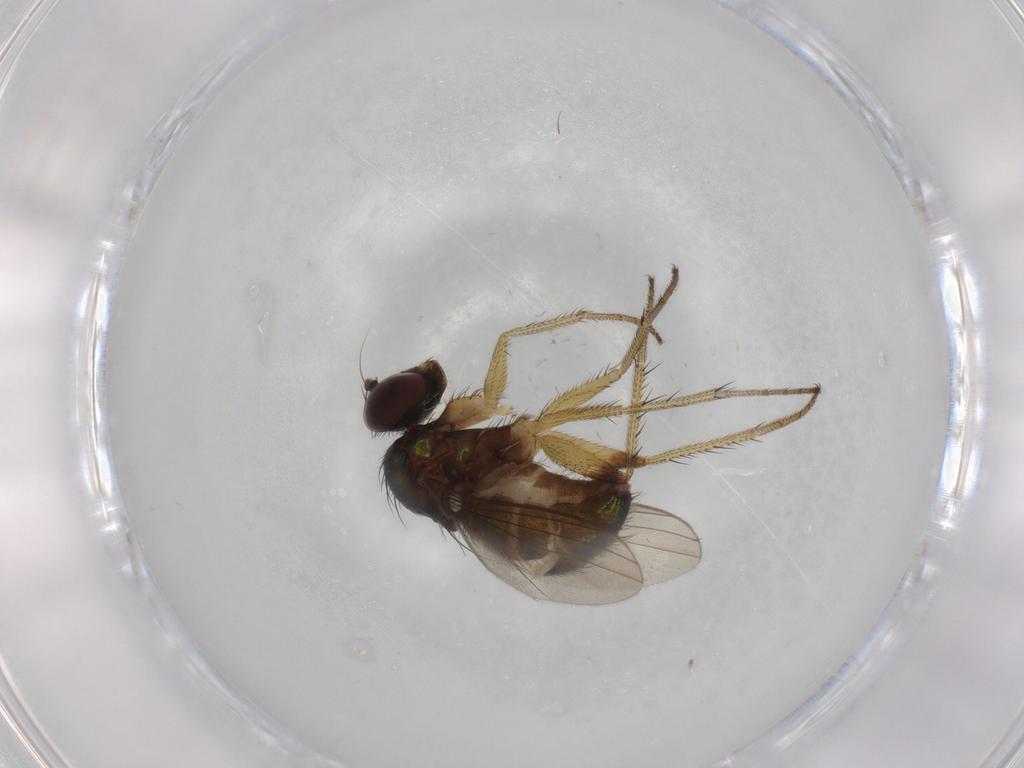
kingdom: Animalia
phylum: Arthropoda
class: Insecta
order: Diptera
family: Dolichopodidae
